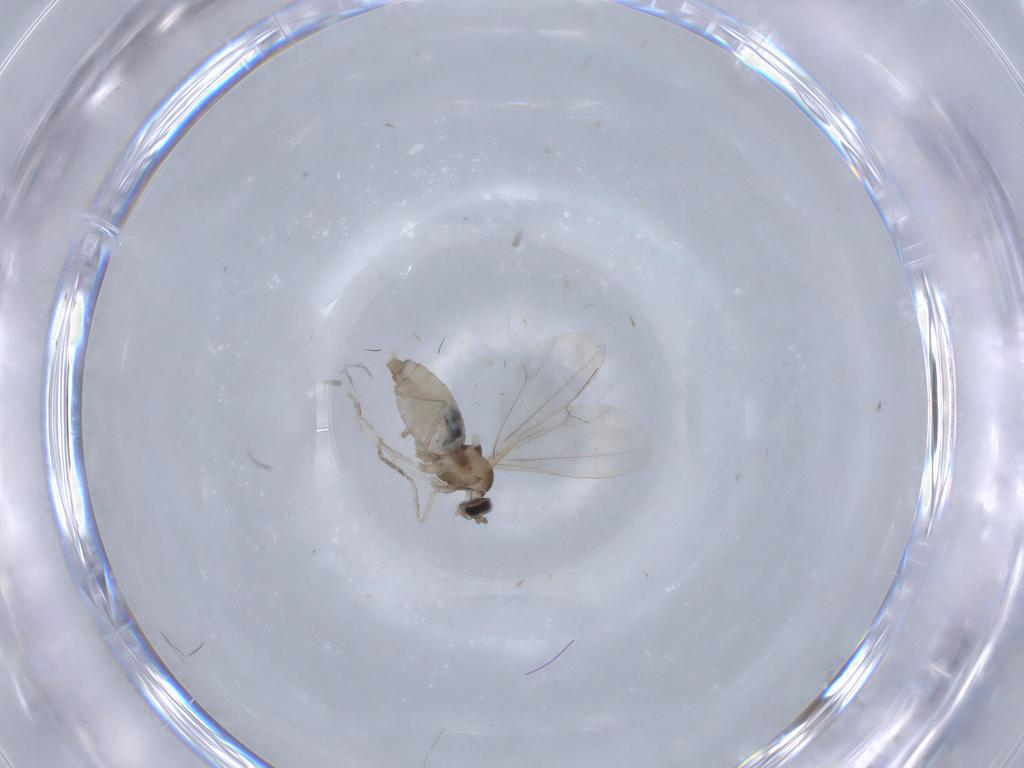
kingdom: Animalia
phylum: Arthropoda
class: Insecta
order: Diptera
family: Cecidomyiidae
